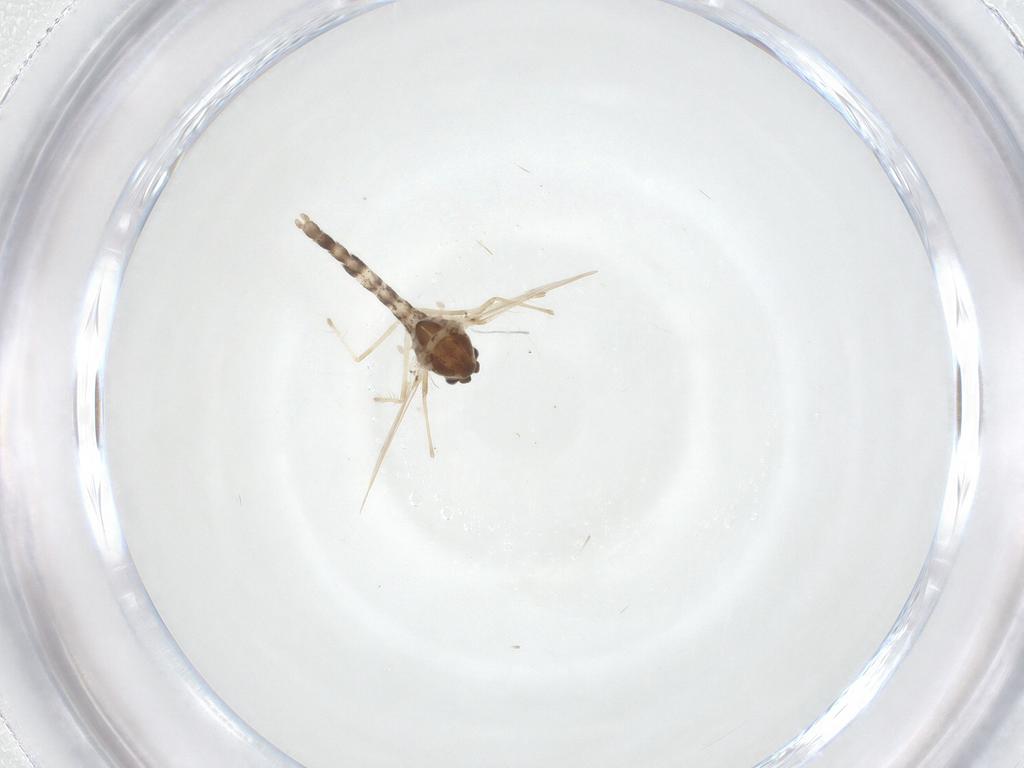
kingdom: Animalia
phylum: Arthropoda
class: Insecta
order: Diptera
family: Chironomidae
